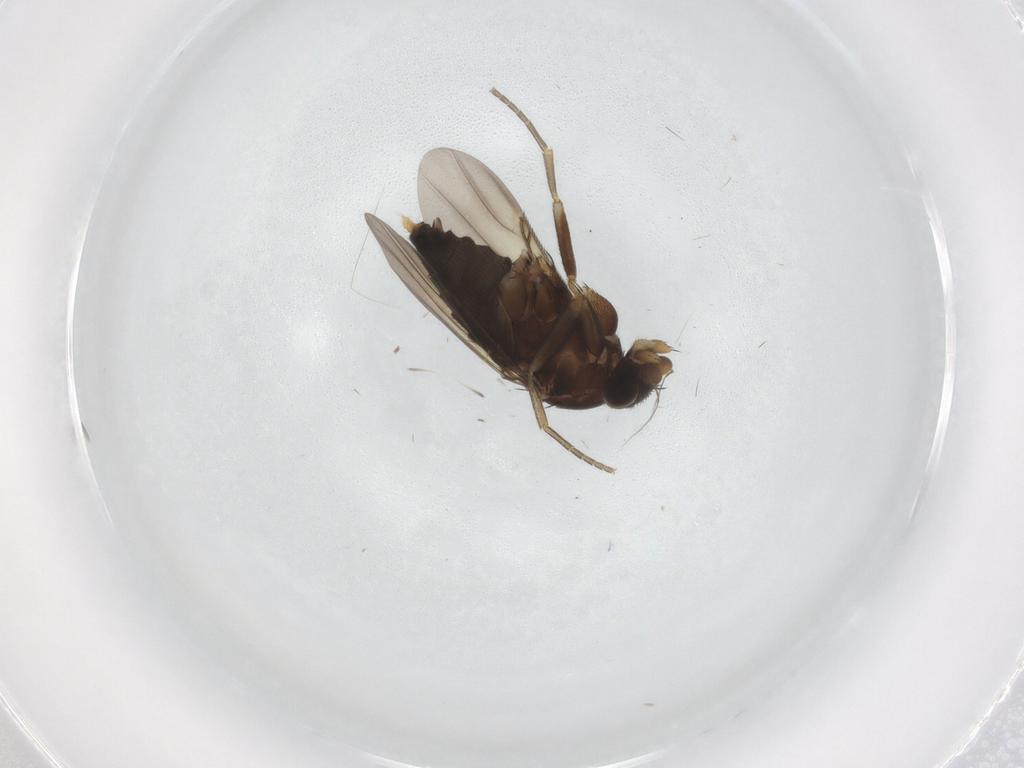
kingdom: Animalia
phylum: Arthropoda
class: Insecta
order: Diptera
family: Phoridae
